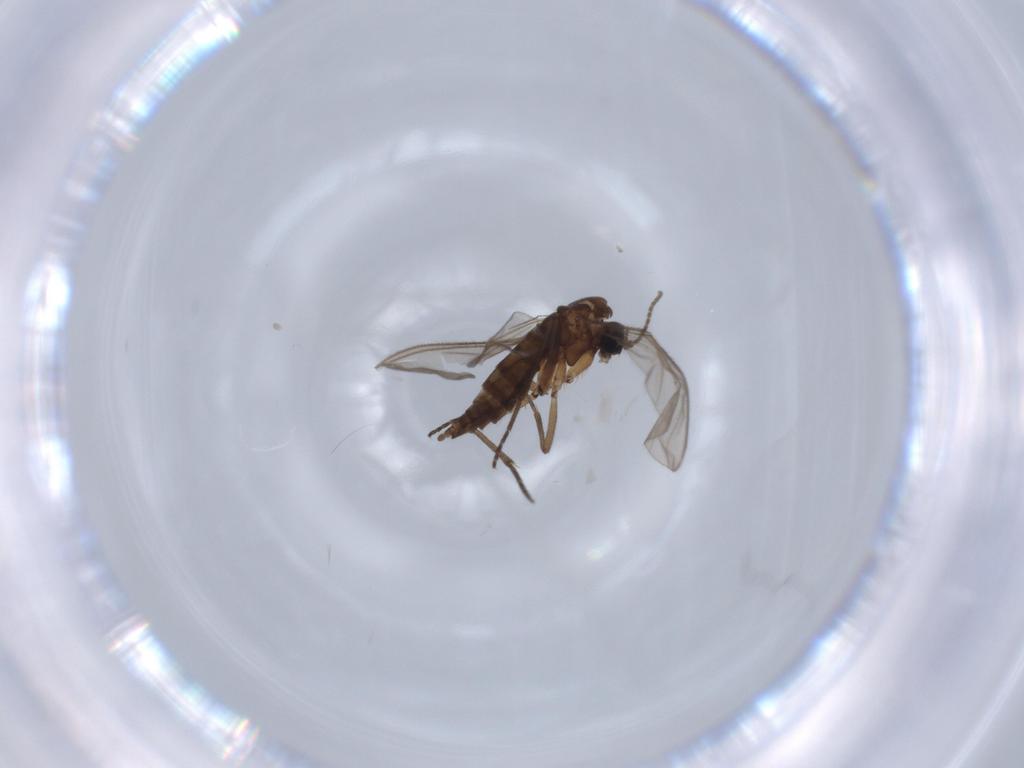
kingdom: Animalia
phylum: Arthropoda
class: Insecta
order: Diptera
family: Sciaridae
